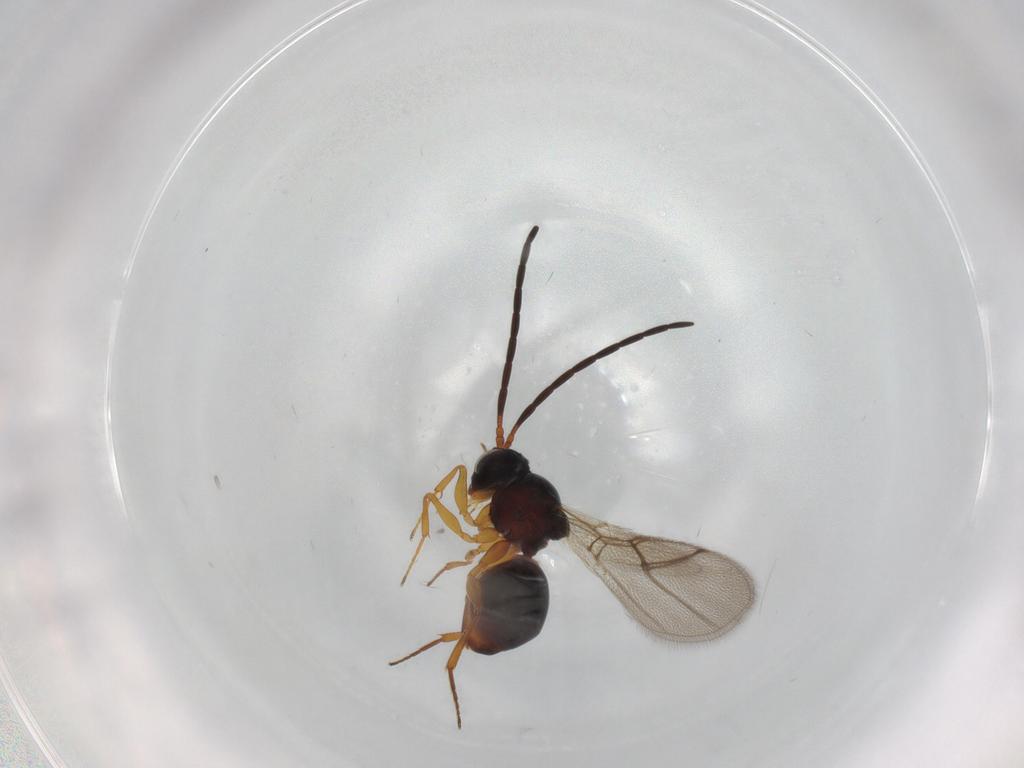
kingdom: Animalia
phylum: Arthropoda
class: Insecta
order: Hymenoptera
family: Figitidae
